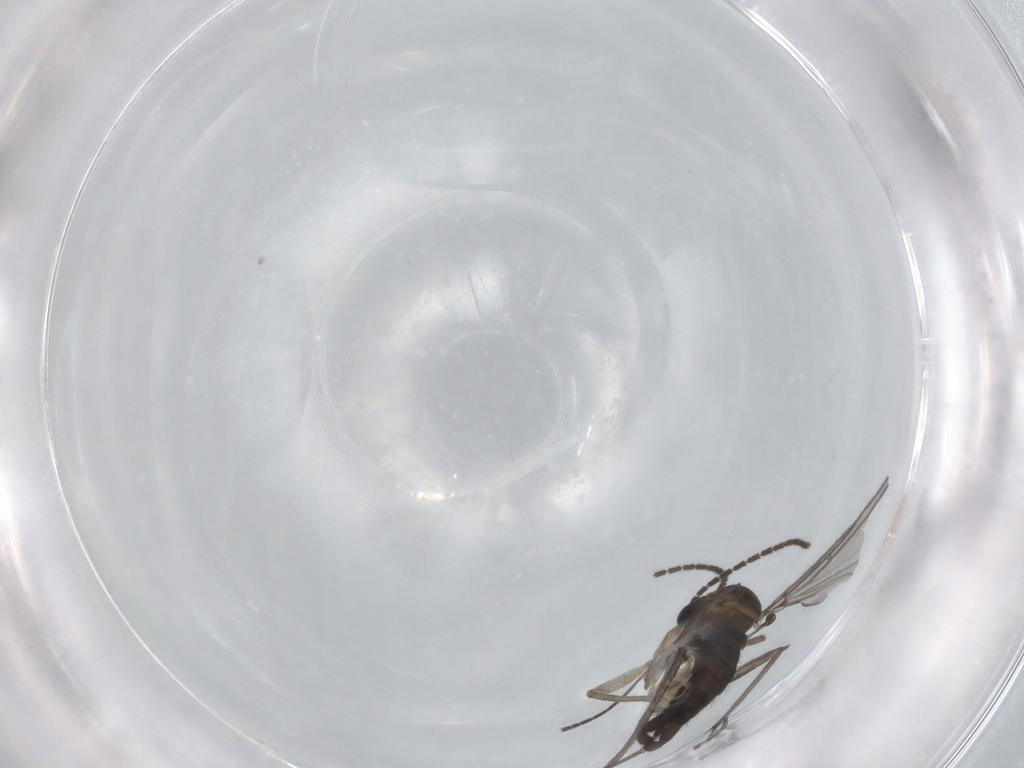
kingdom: Animalia
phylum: Arthropoda
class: Insecta
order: Diptera
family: Sciaridae
